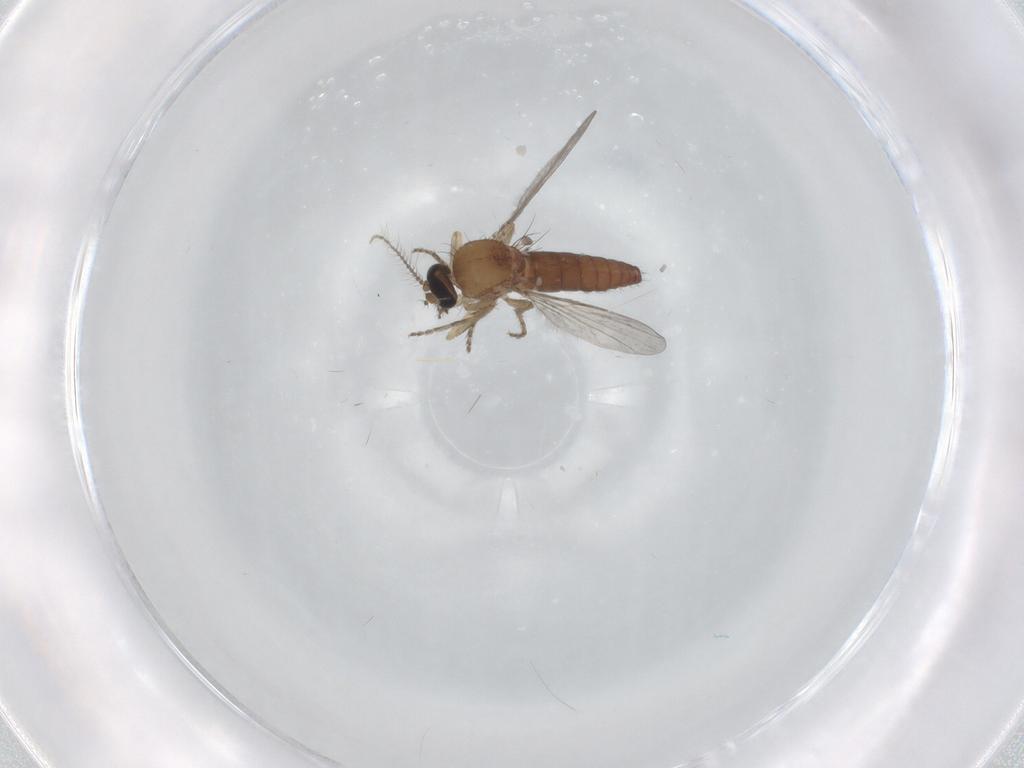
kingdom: Animalia
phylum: Arthropoda
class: Insecta
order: Diptera
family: Ceratopogonidae
